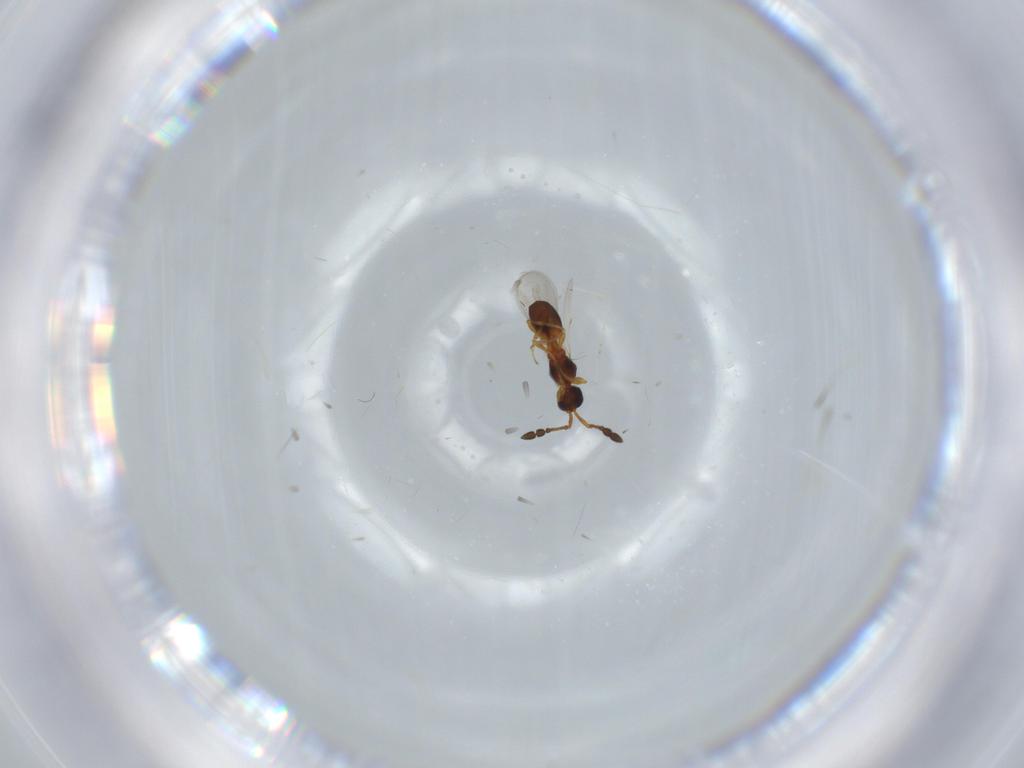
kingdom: Animalia
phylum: Arthropoda
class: Insecta
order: Hymenoptera
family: Diapriidae
